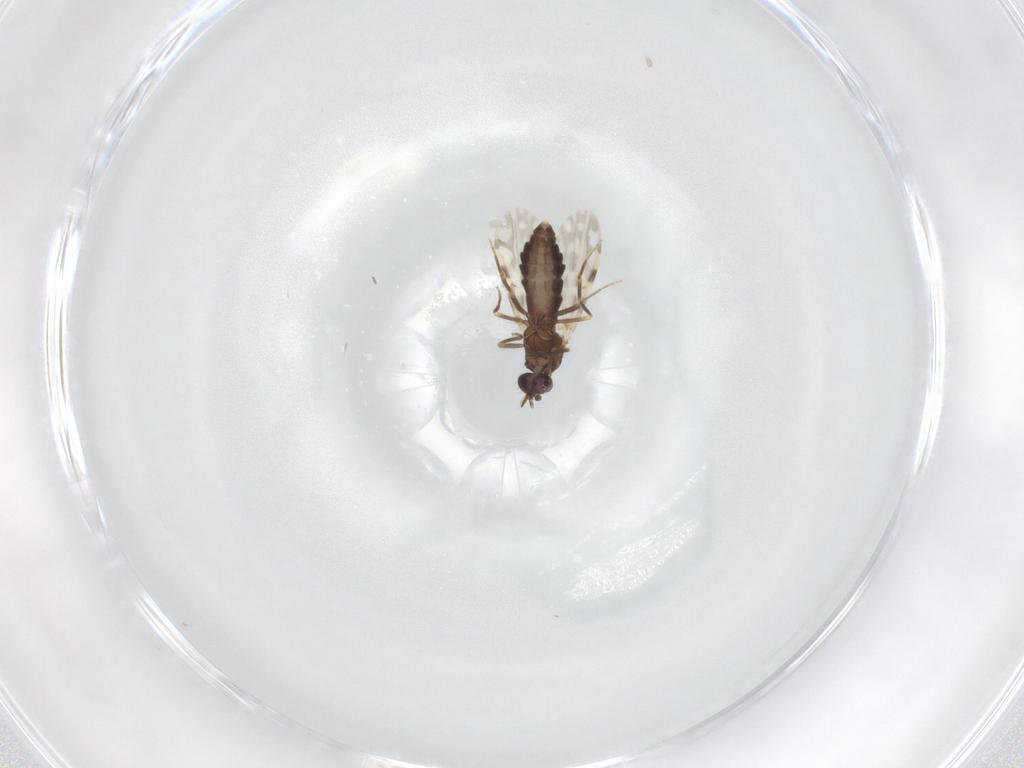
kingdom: Animalia
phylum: Arthropoda
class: Insecta
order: Diptera
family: Ceratopogonidae
